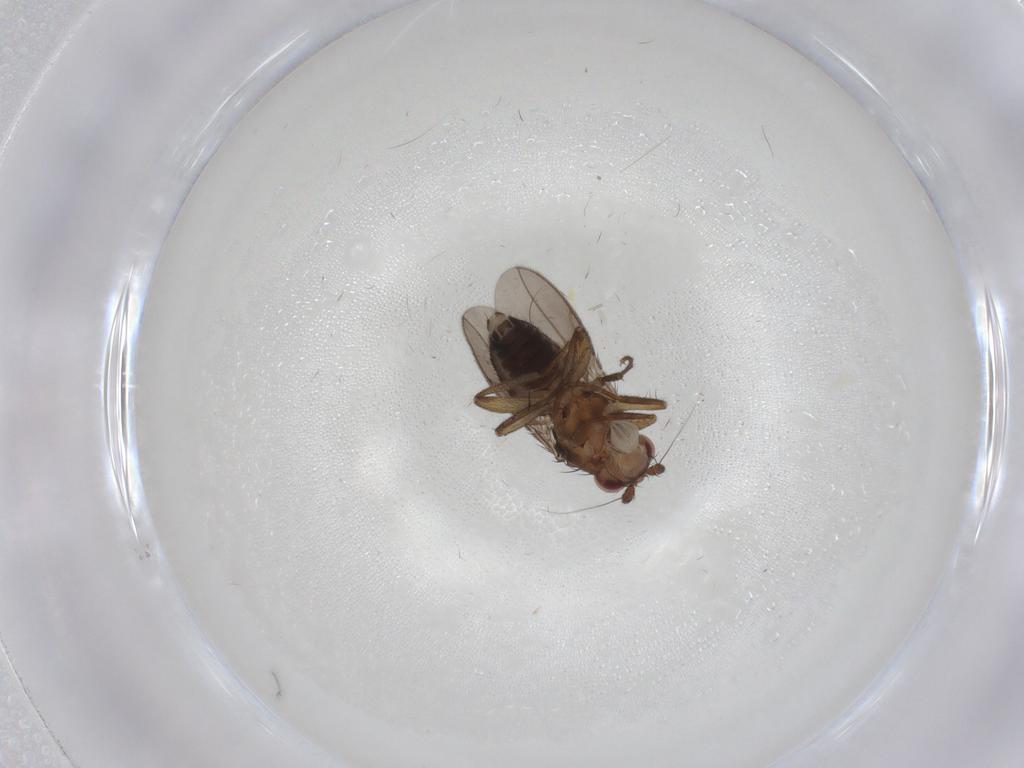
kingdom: Animalia
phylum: Arthropoda
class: Insecta
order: Diptera
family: Sphaeroceridae
